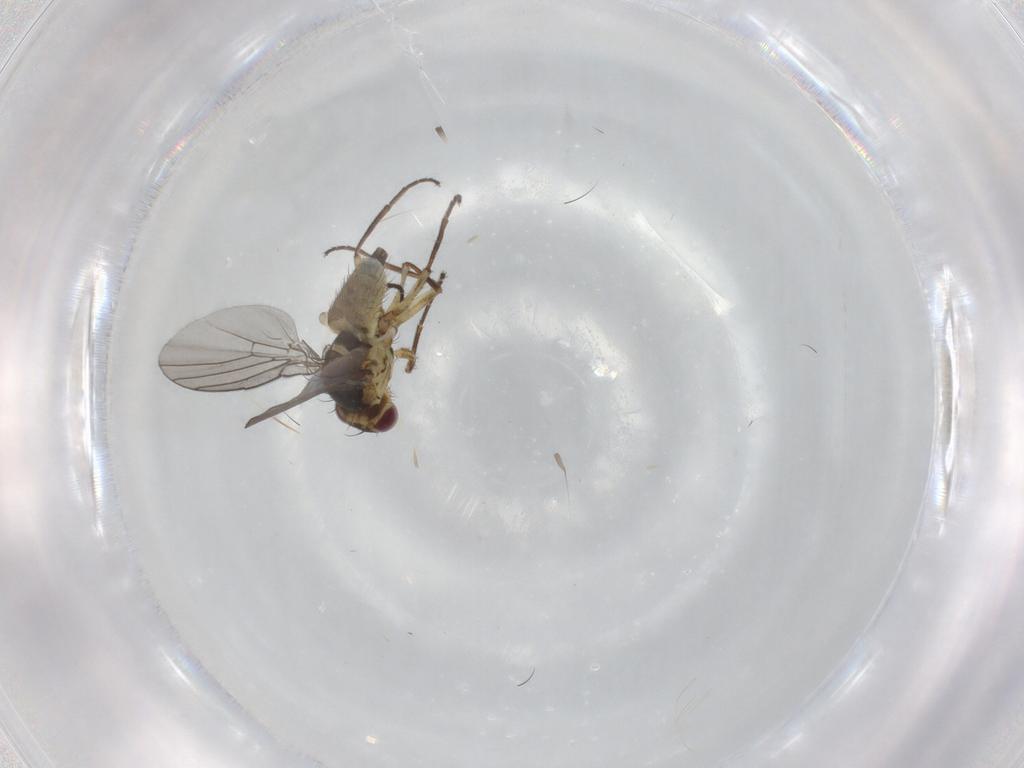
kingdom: Animalia
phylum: Arthropoda
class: Insecta
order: Diptera
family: Agromyzidae
